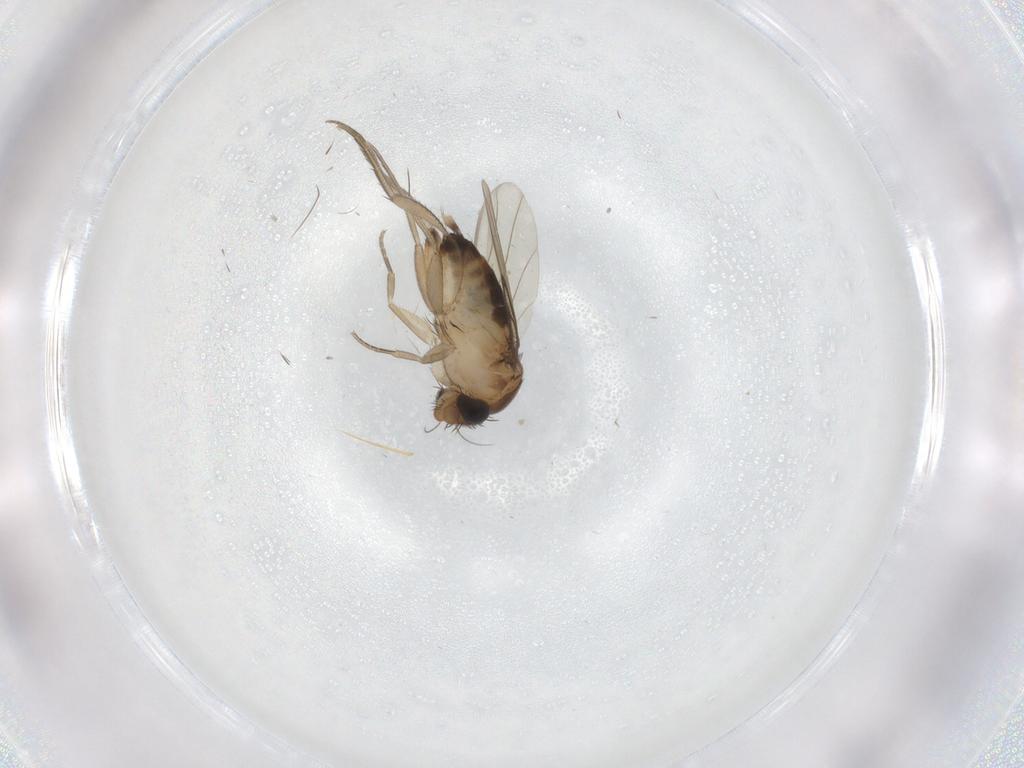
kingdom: Animalia
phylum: Arthropoda
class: Insecta
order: Diptera
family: Phoridae
